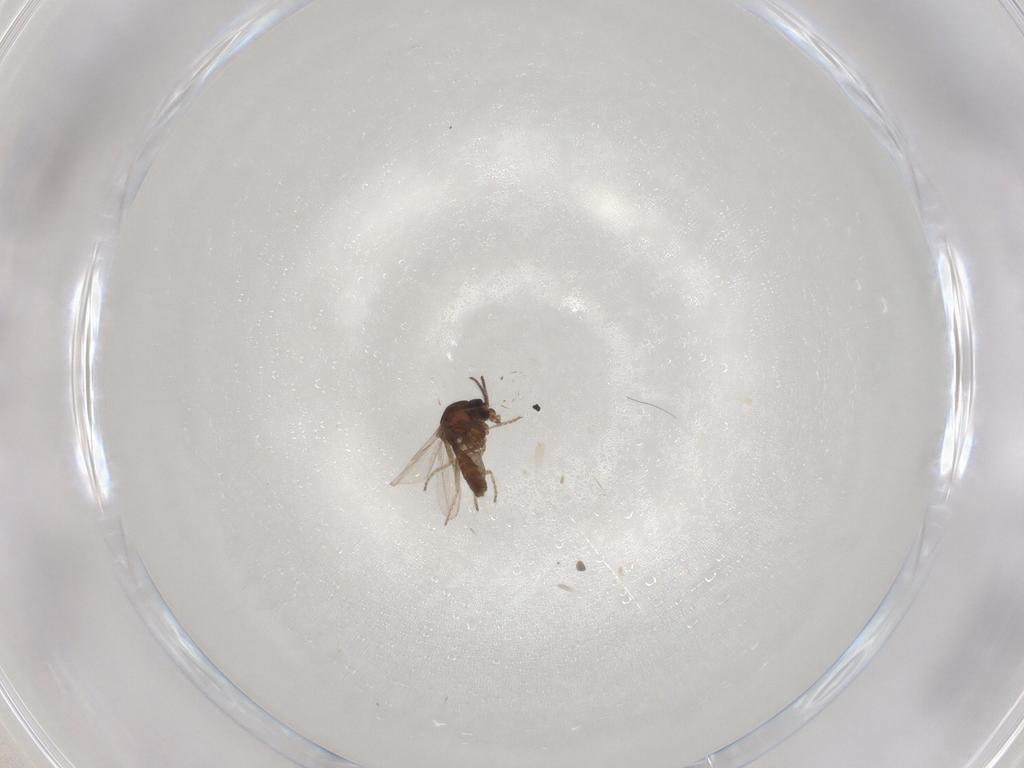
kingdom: Animalia
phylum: Arthropoda
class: Insecta
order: Diptera
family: Ceratopogonidae
